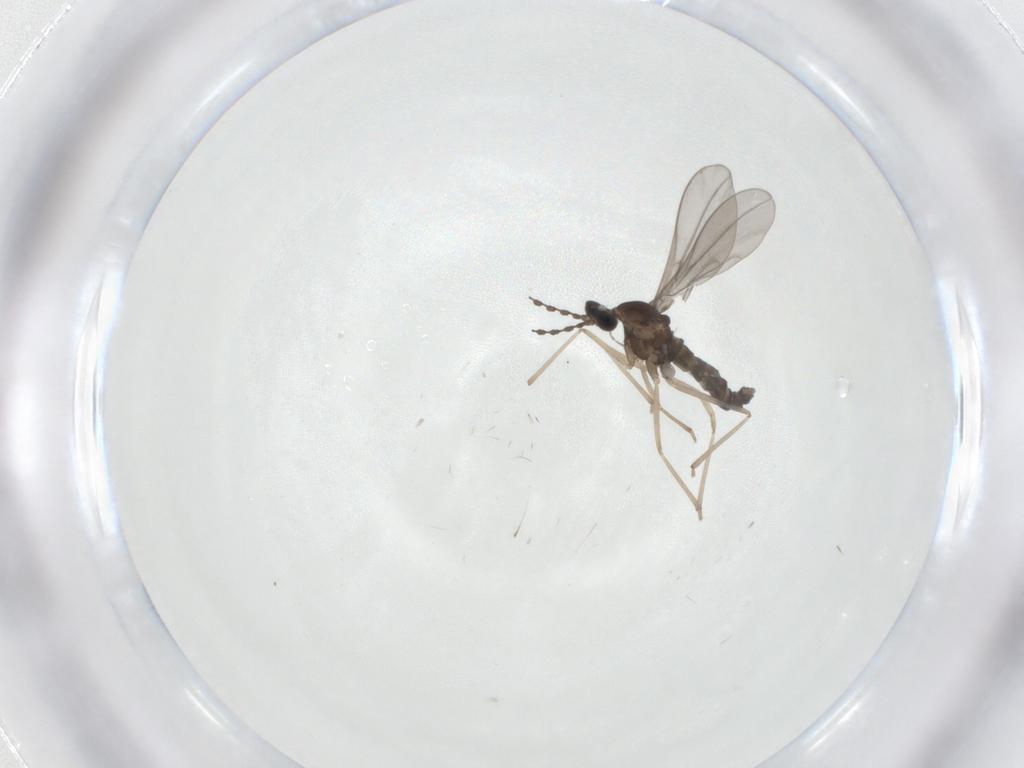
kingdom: Animalia
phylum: Arthropoda
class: Insecta
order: Diptera
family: Cecidomyiidae
